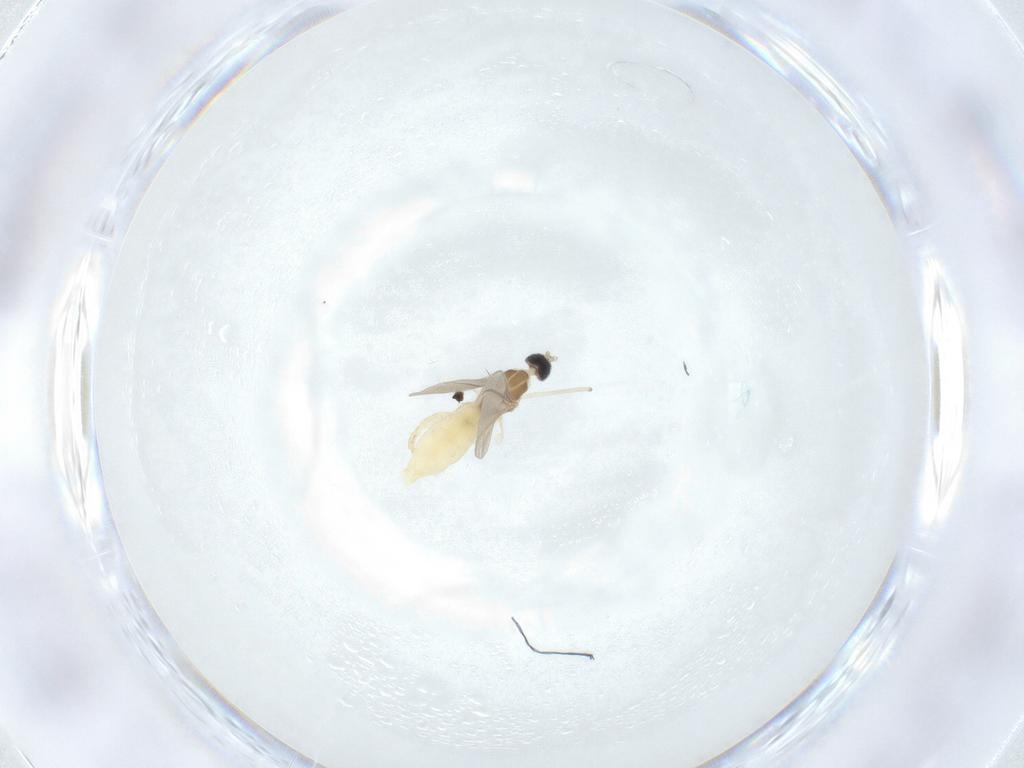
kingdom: Animalia
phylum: Arthropoda
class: Insecta
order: Diptera
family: Cecidomyiidae
